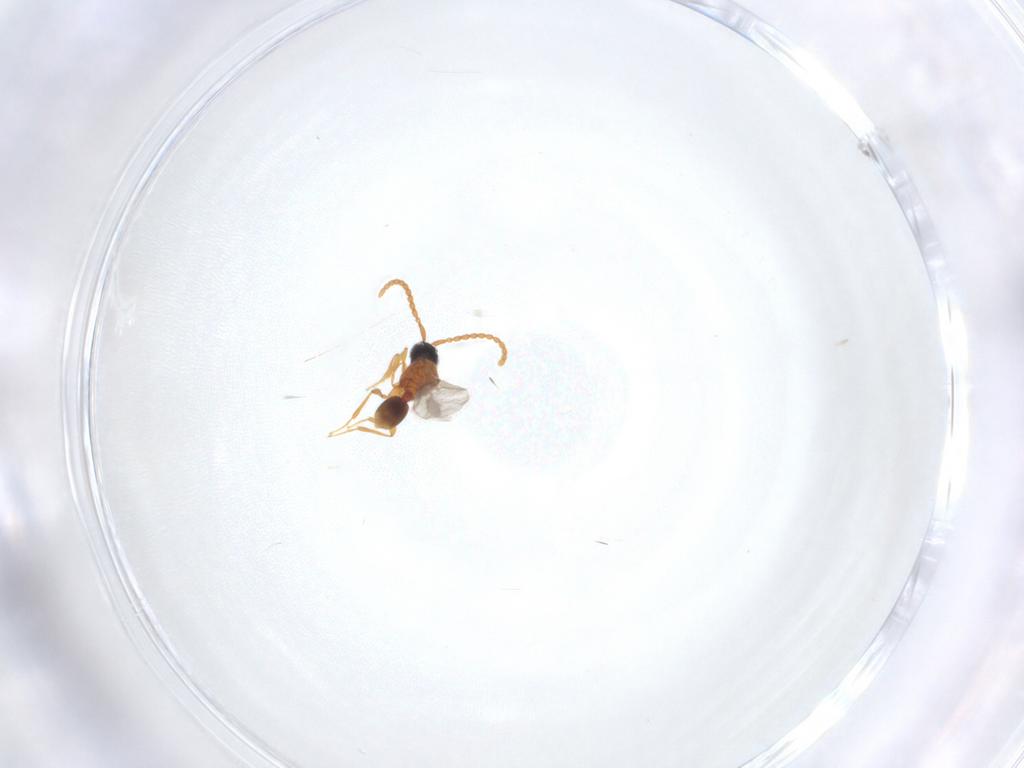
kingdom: Animalia
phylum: Arthropoda
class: Insecta
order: Hymenoptera
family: Diapriidae
